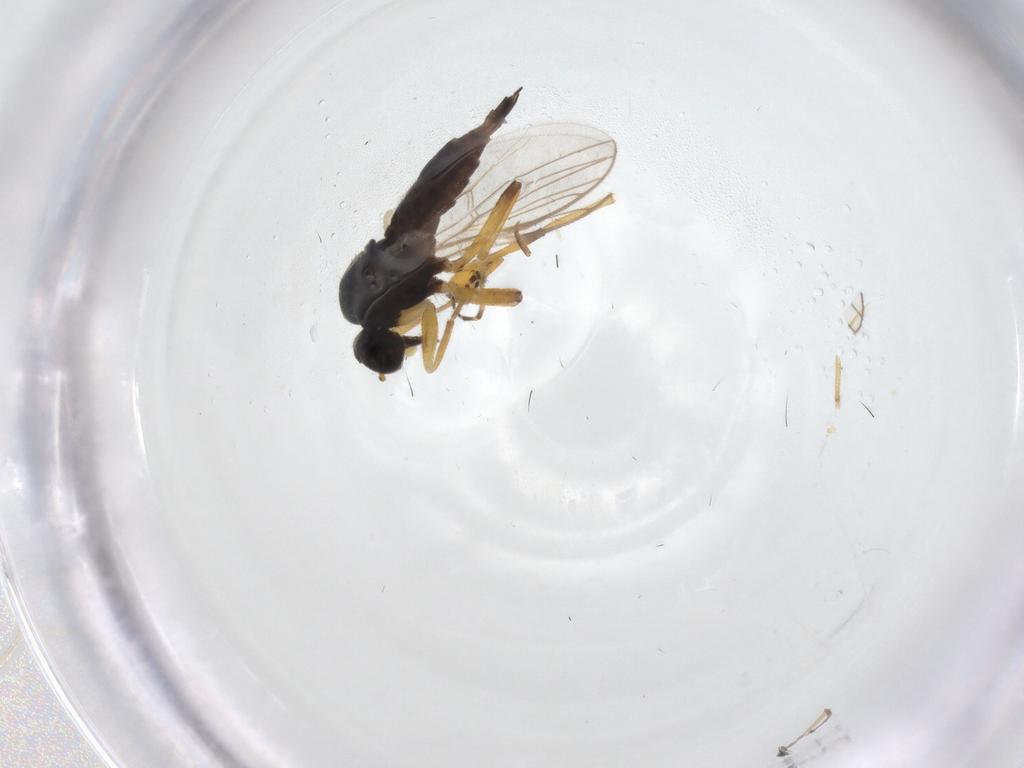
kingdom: Animalia
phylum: Arthropoda
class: Insecta
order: Diptera
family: Hybotidae
